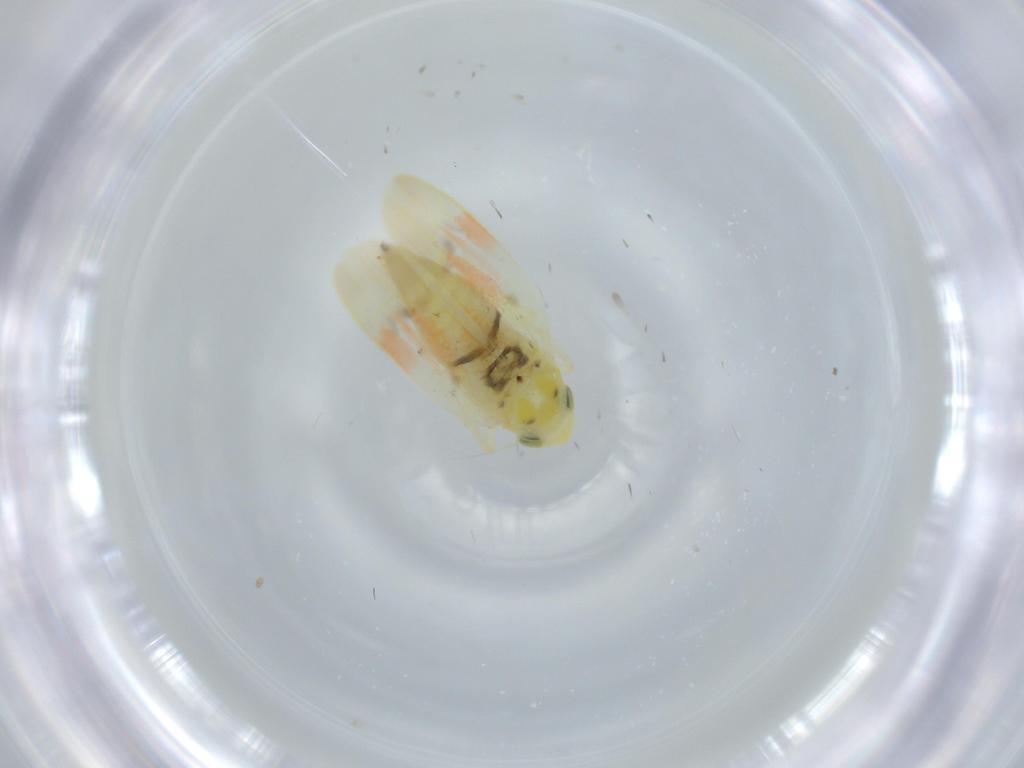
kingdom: Animalia
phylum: Arthropoda
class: Insecta
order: Hemiptera
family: Cicadellidae
